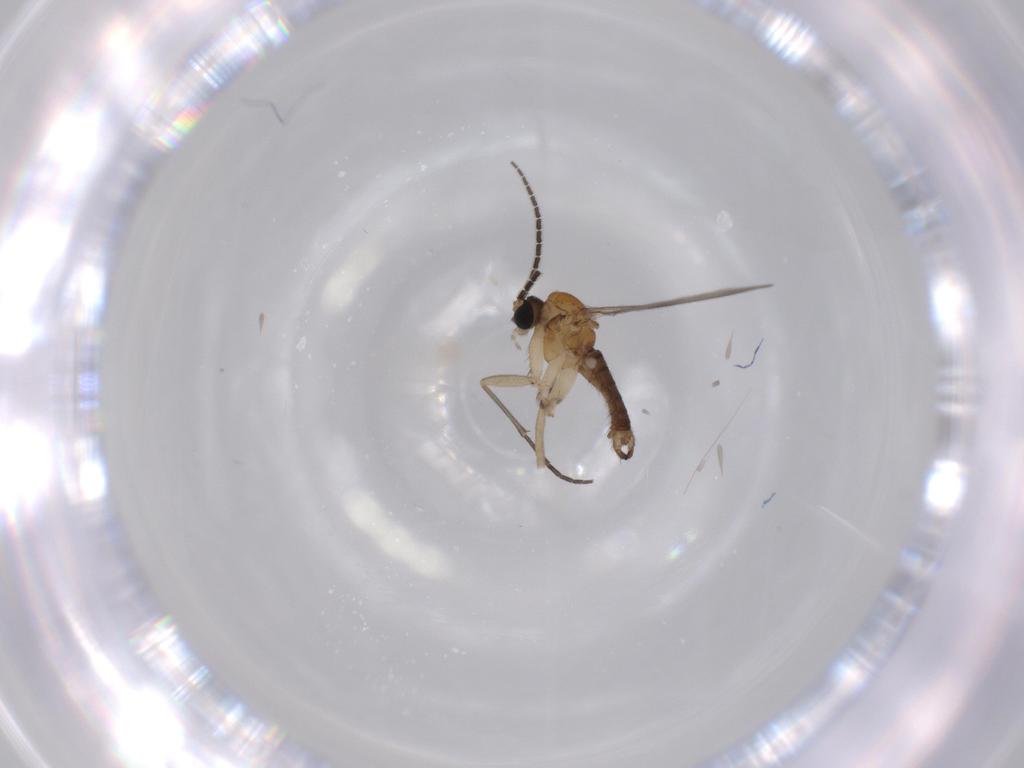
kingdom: Animalia
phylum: Arthropoda
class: Insecta
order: Diptera
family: Sciaridae
